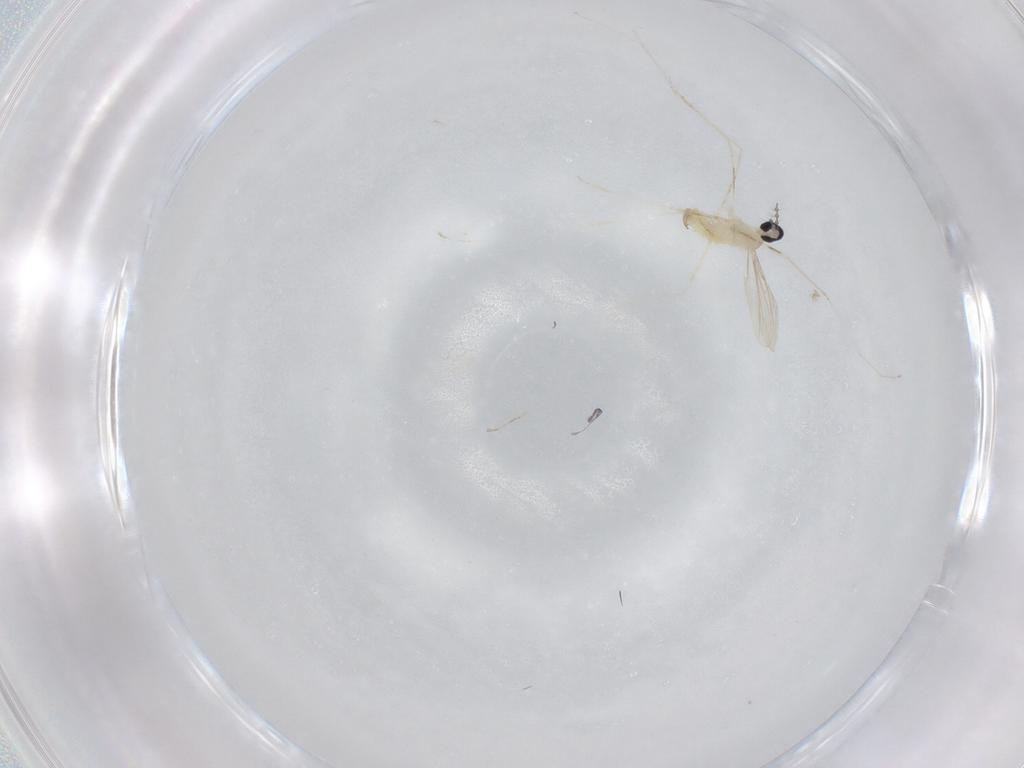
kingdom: Animalia
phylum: Arthropoda
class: Insecta
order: Diptera
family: Cecidomyiidae
